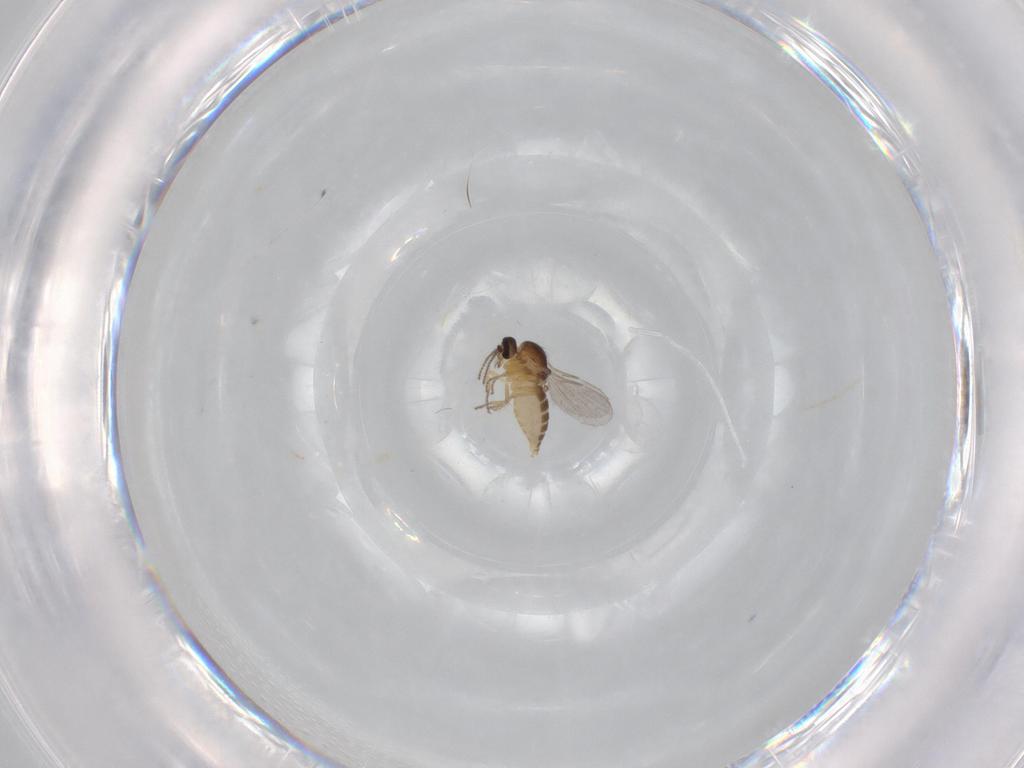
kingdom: Animalia
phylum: Arthropoda
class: Insecta
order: Diptera
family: Ceratopogonidae
